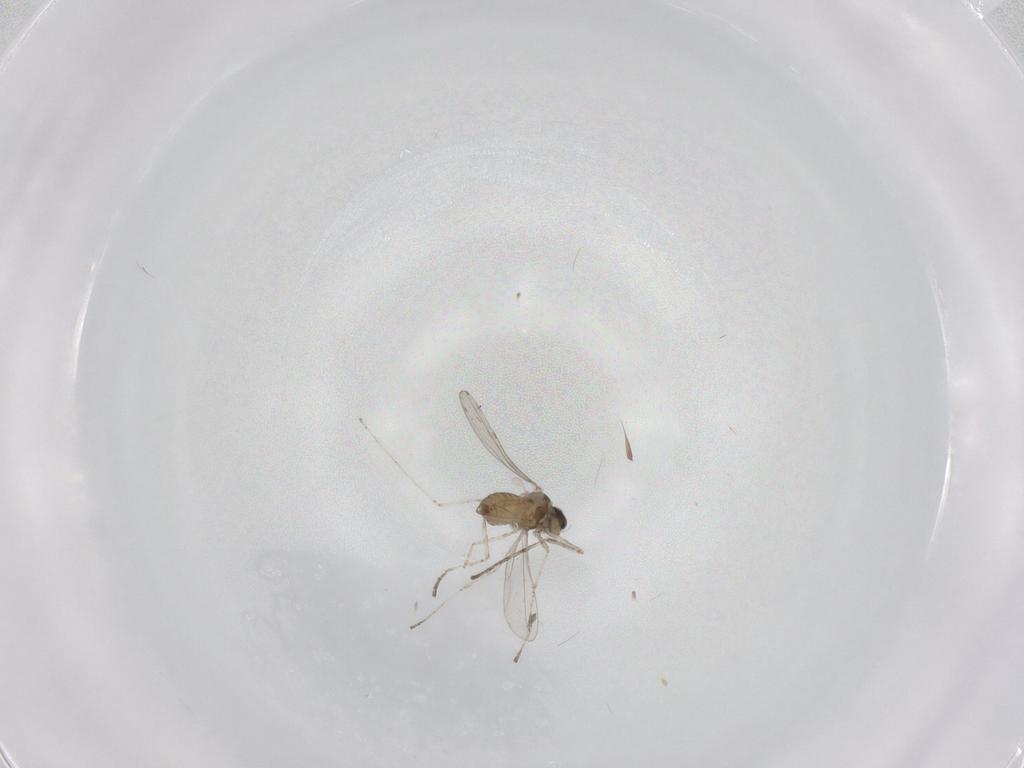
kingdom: Animalia
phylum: Arthropoda
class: Insecta
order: Diptera
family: Cecidomyiidae
